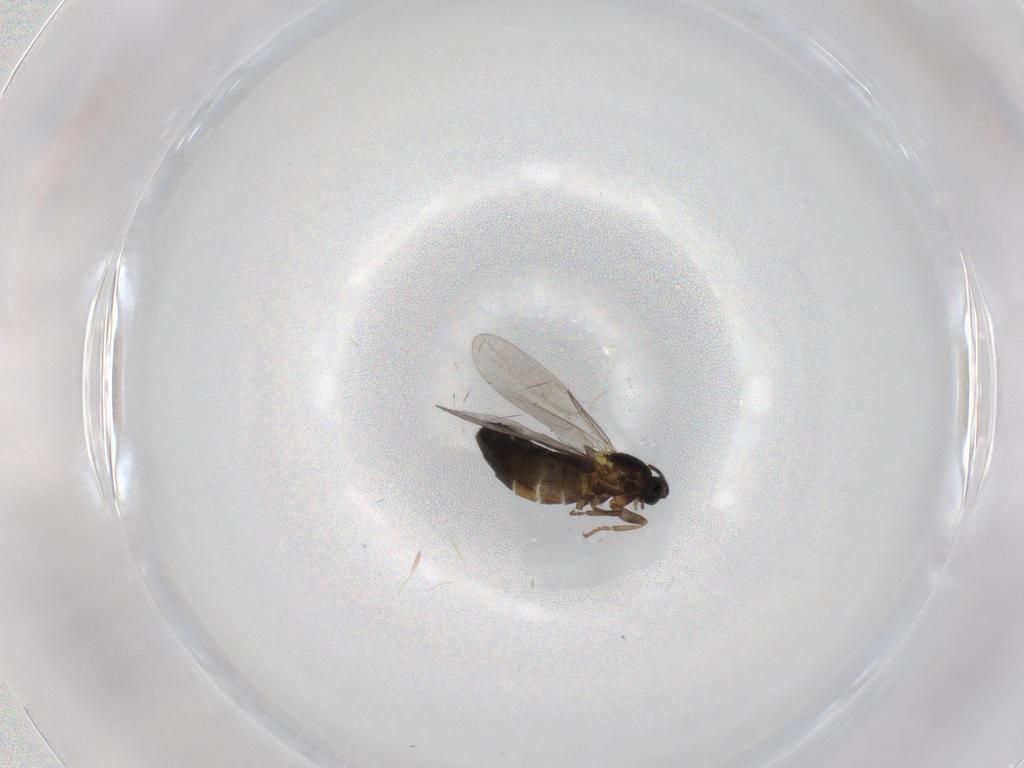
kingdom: Animalia
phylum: Arthropoda
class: Insecta
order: Diptera
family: Scatopsidae
